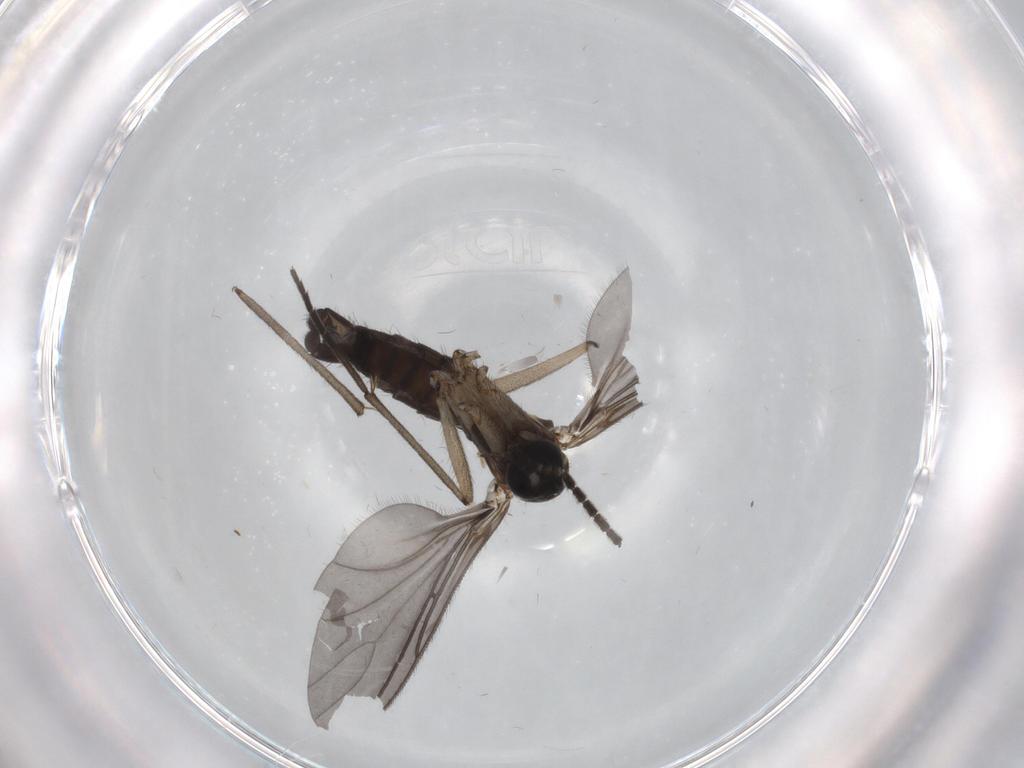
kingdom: Animalia
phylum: Arthropoda
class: Insecta
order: Diptera
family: Sciaridae
